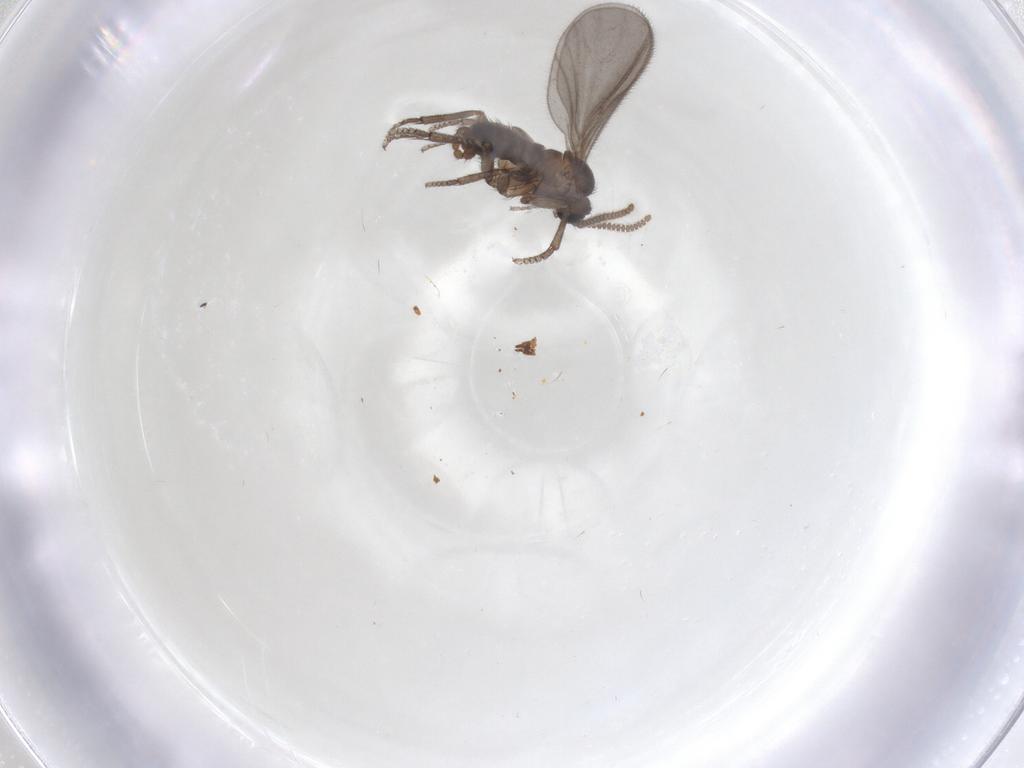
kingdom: Animalia
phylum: Arthropoda
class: Insecta
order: Diptera
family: Sciaridae
